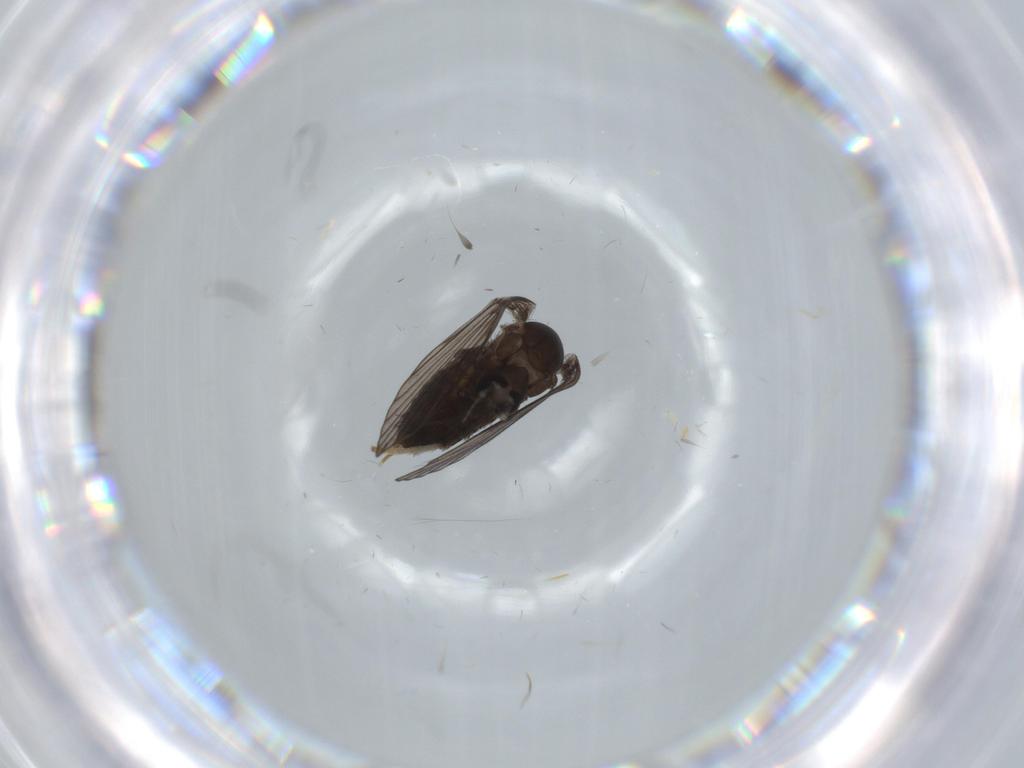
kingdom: Animalia
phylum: Arthropoda
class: Insecta
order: Diptera
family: Psychodidae
